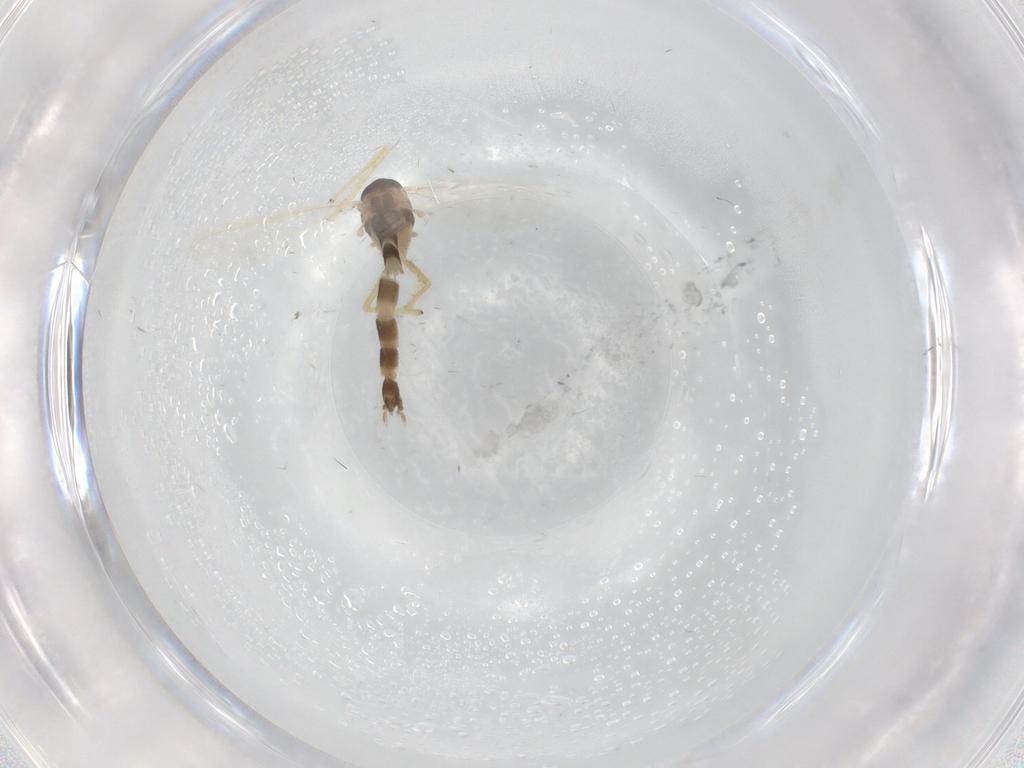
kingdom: Animalia
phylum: Arthropoda
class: Insecta
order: Diptera
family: Chironomidae
